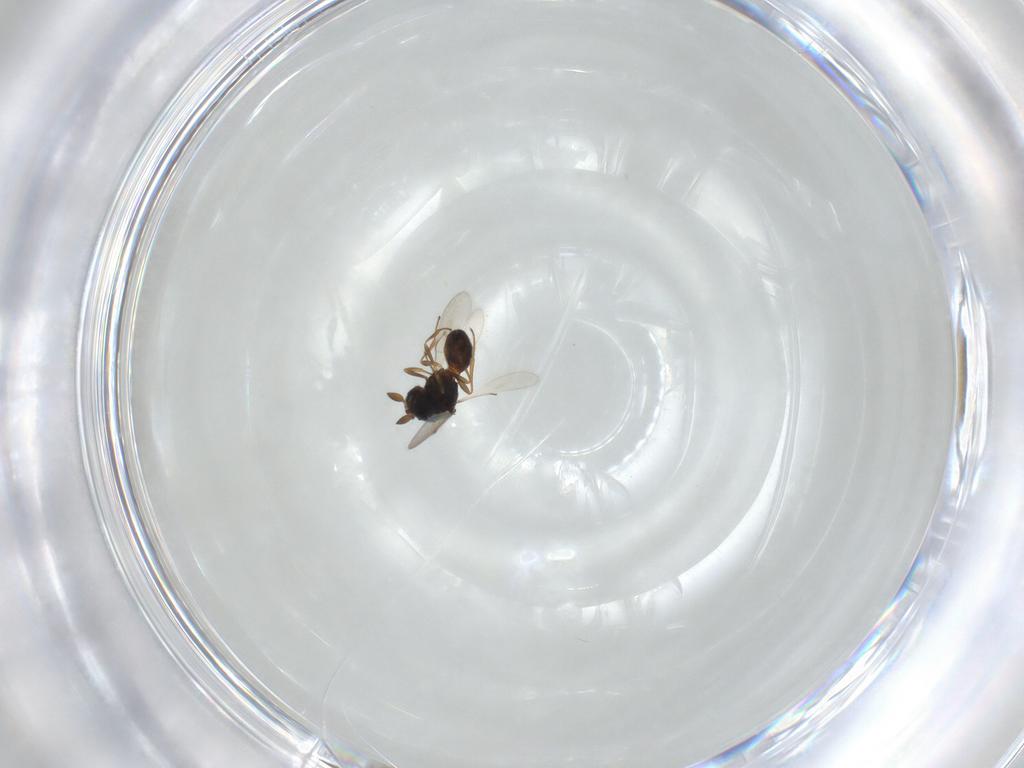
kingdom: Animalia
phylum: Arthropoda
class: Insecta
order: Hymenoptera
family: Scelionidae
